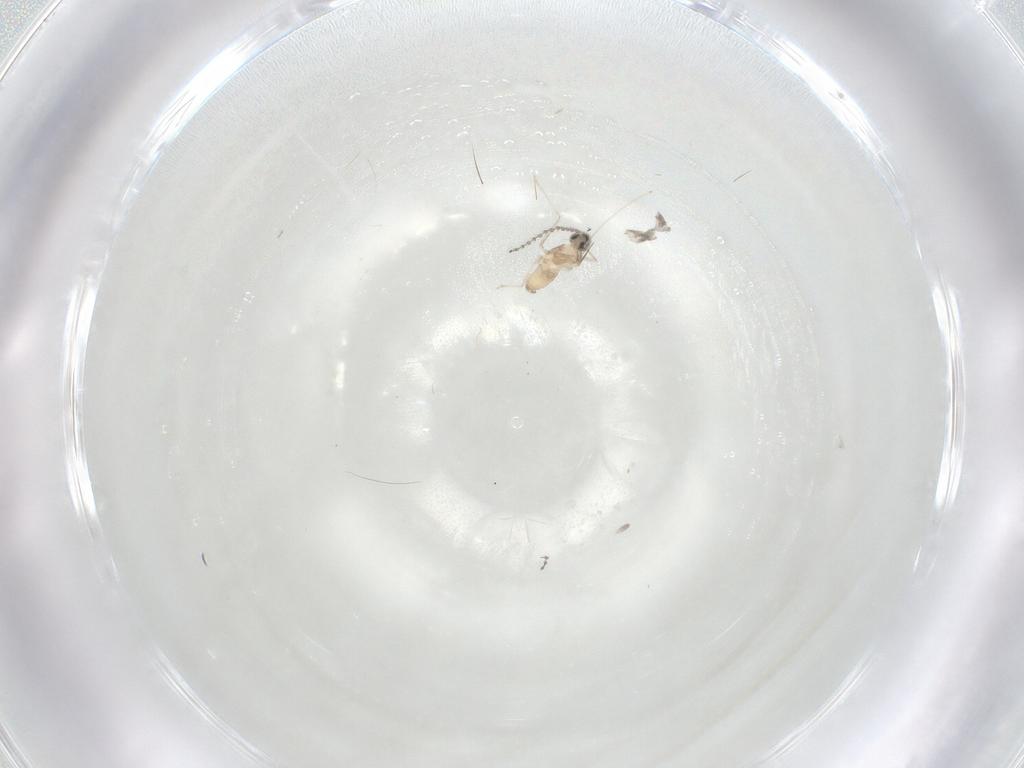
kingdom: Animalia
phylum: Arthropoda
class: Insecta
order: Diptera
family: Cecidomyiidae
